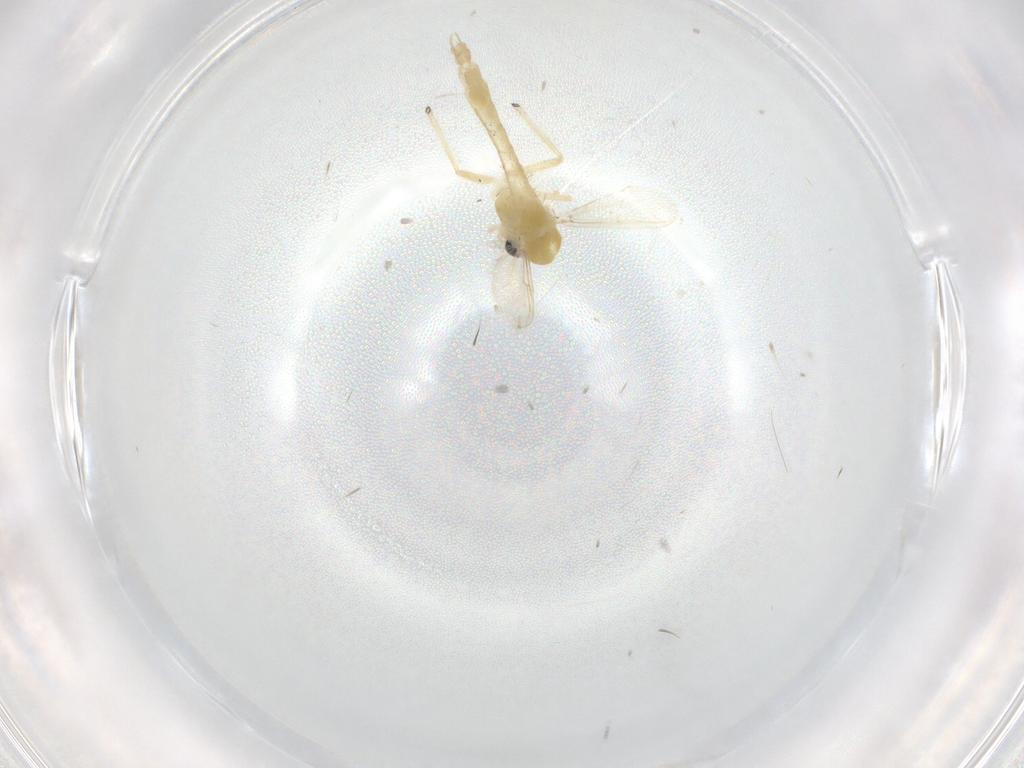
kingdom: Animalia
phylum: Arthropoda
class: Insecta
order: Diptera
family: Chironomidae
